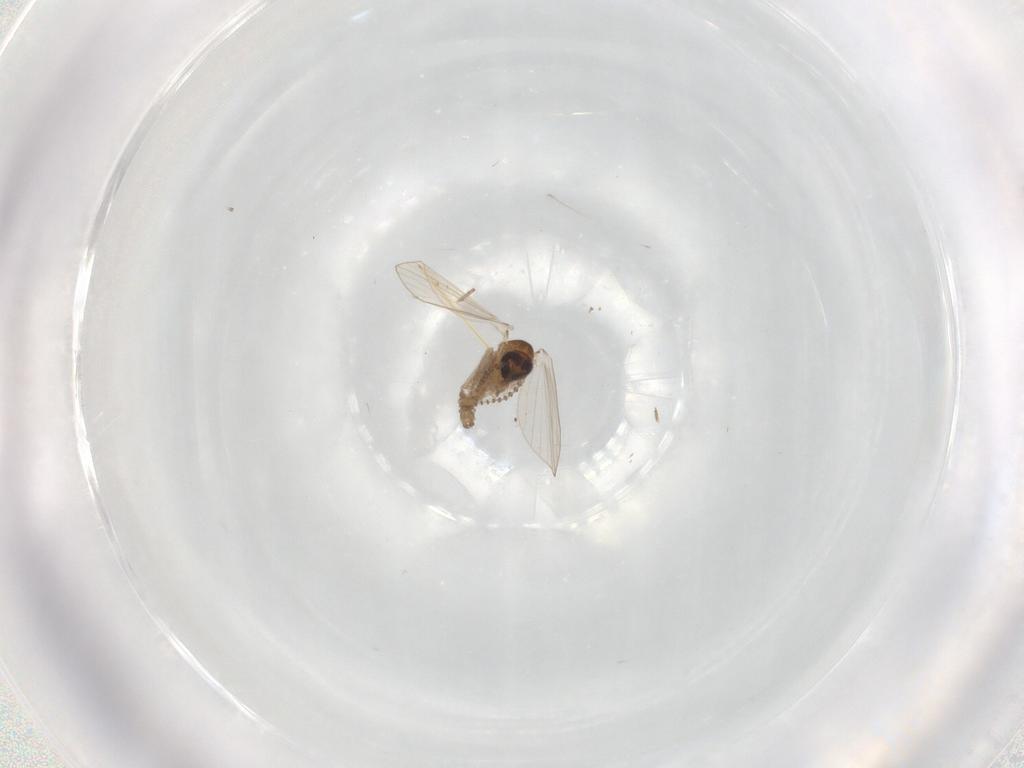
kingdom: Animalia
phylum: Arthropoda
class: Insecta
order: Diptera
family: Psychodidae
